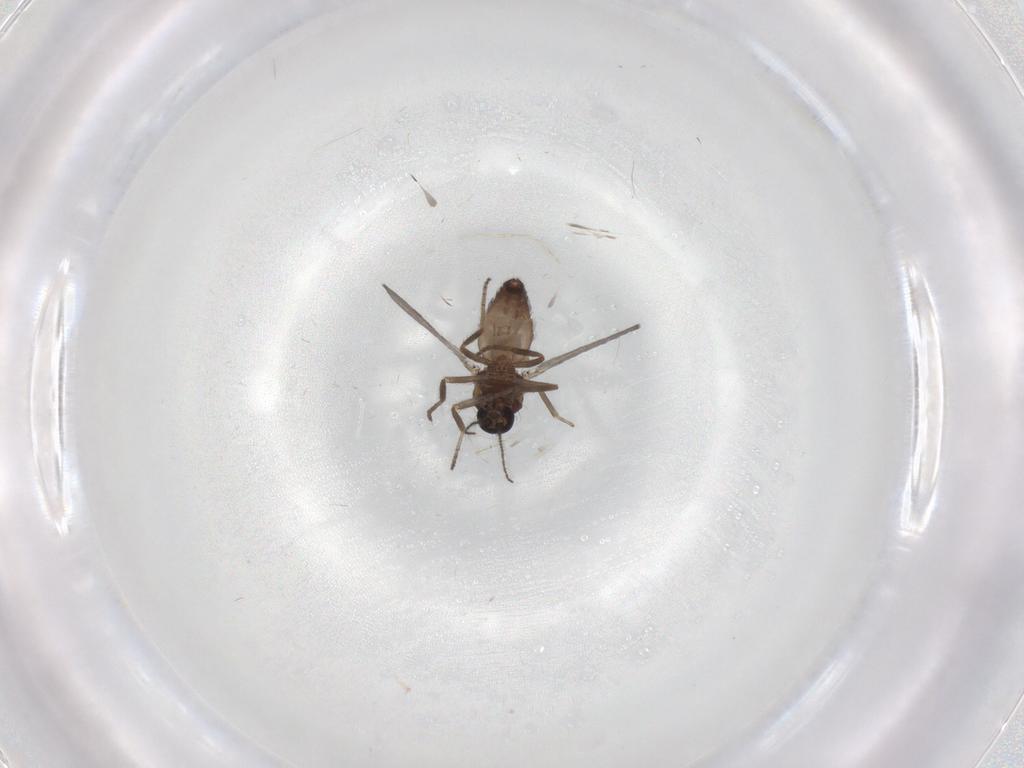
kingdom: Animalia
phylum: Arthropoda
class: Insecta
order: Diptera
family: Ceratopogonidae
